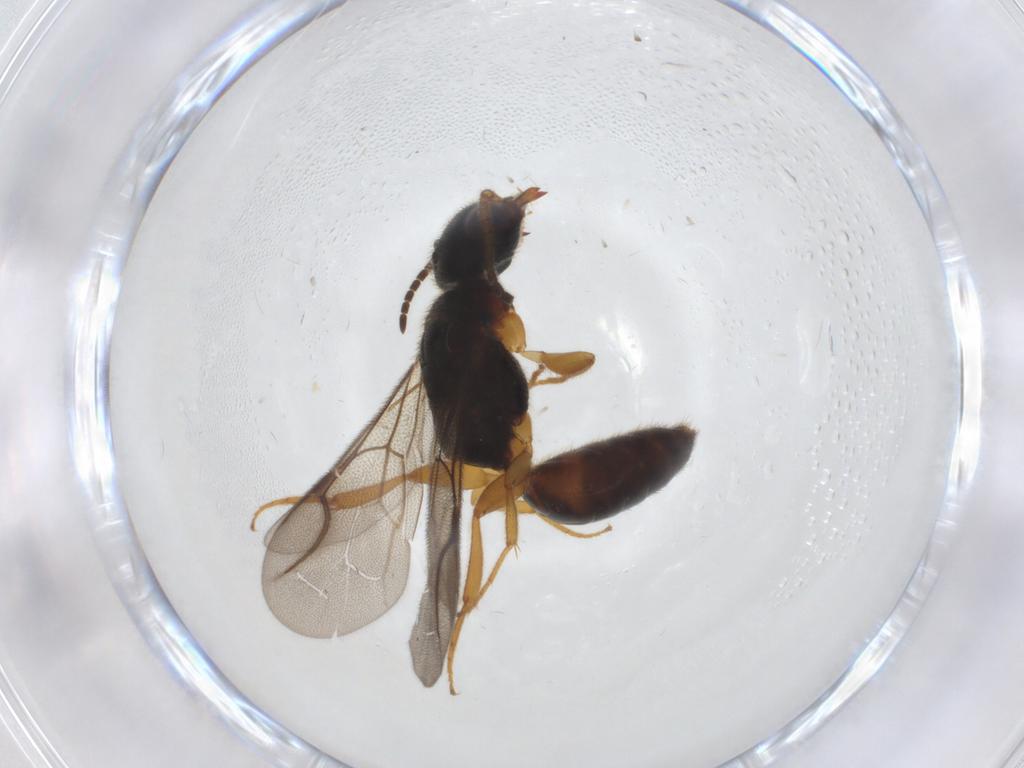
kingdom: Animalia
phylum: Arthropoda
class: Insecta
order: Hymenoptera
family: Bethylidae
